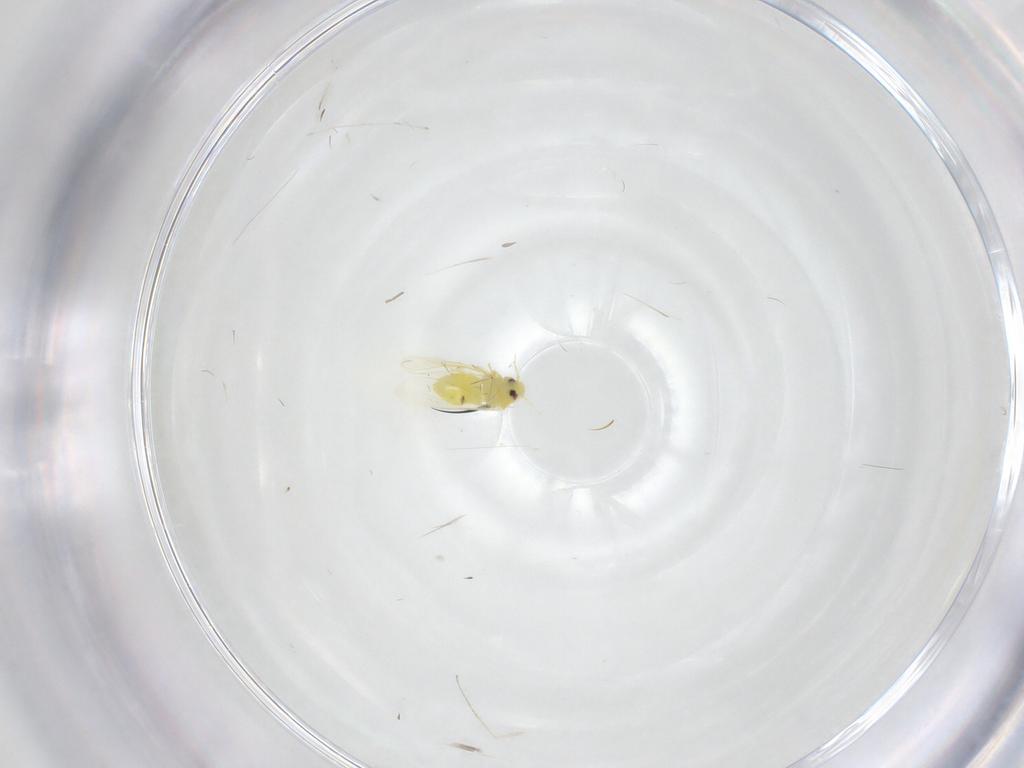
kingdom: Animalia
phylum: Arthropoda
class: Insecta
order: Hemiptera
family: Aleyrodidae
